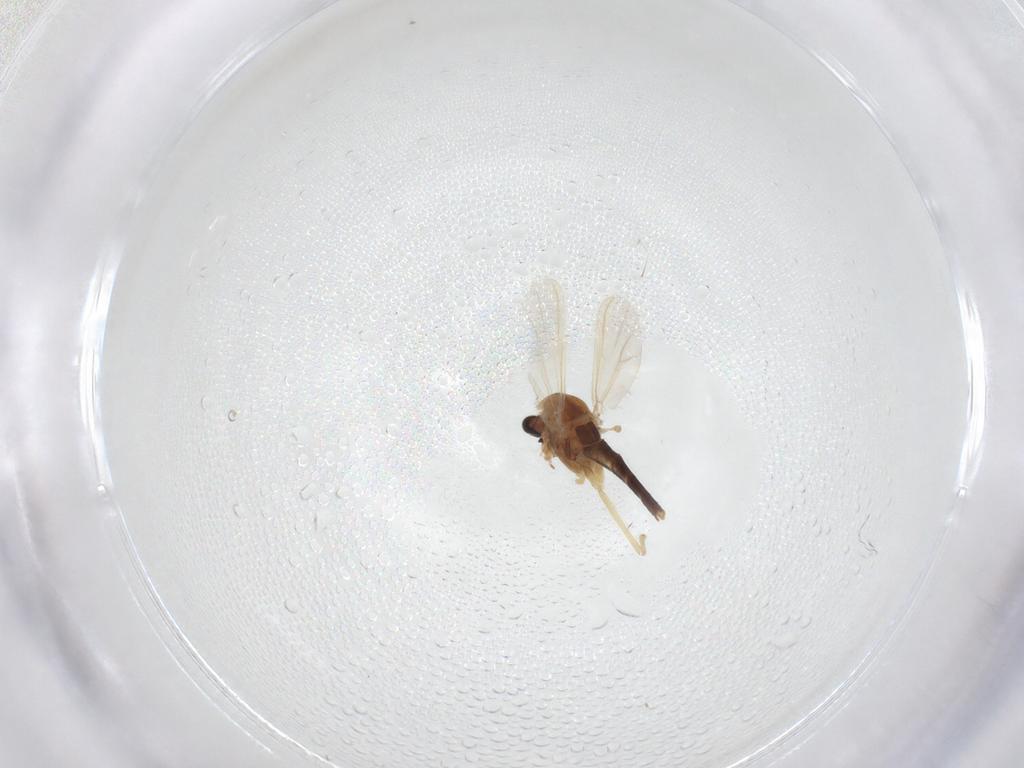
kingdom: Animalia
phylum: Arthropoda
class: Insecta
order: Diptera
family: Chironomidae
